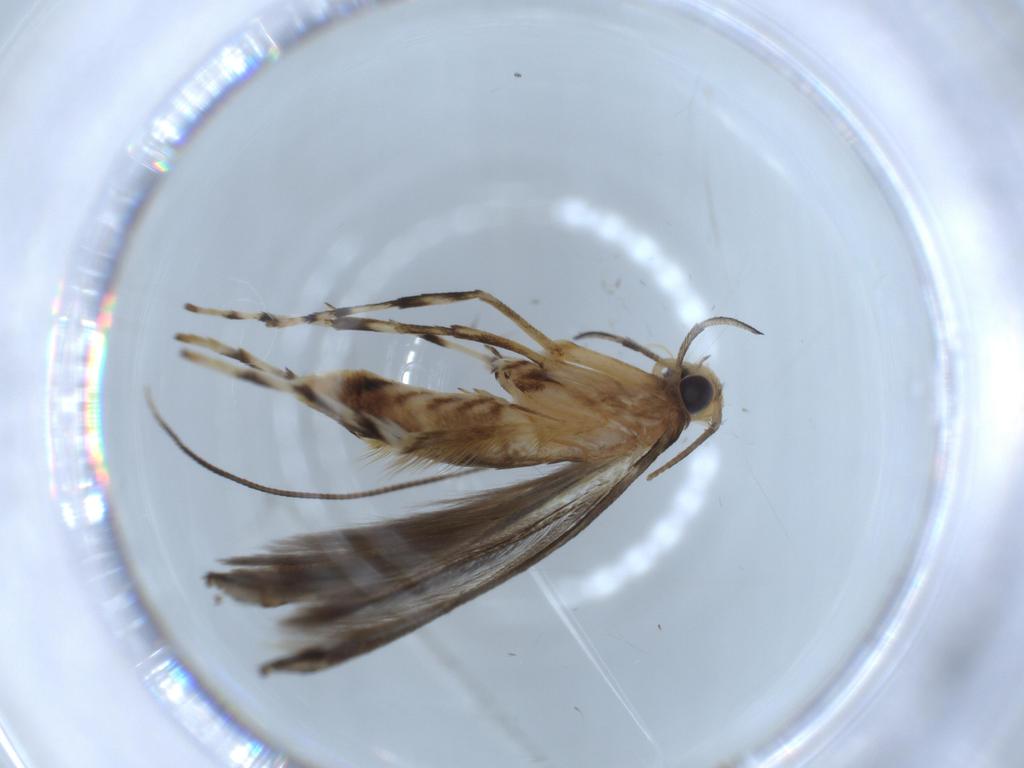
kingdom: Animalia
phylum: Arthropoda
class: Insecta
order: Lepidoptera
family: Gracillariidae
